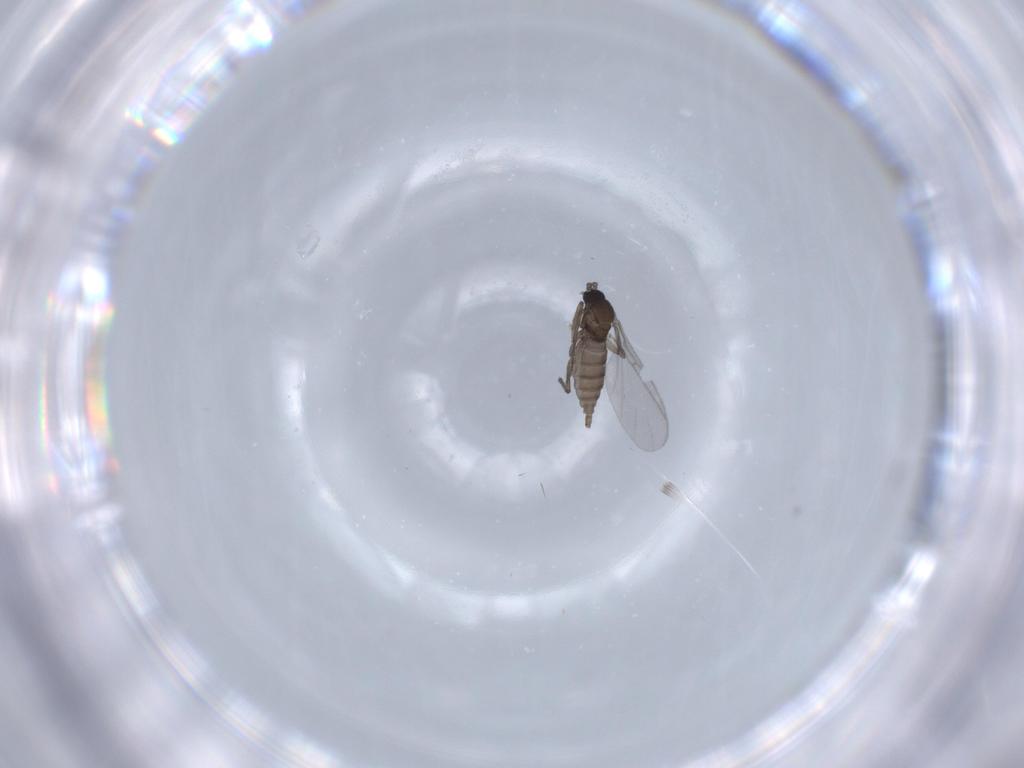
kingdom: Animalia
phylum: Arthropoda
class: Insecta
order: Diptera
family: Sciaridae
